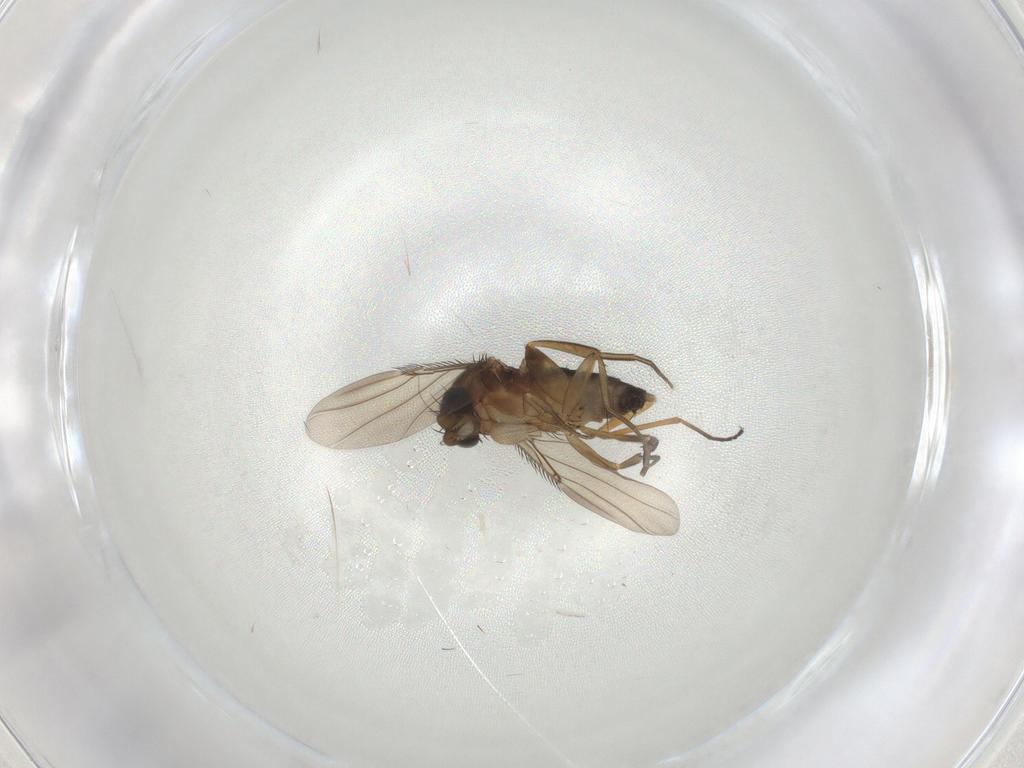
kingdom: Animalia
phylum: Arthropoda
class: Insecta
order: Diptera
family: Phoridae
